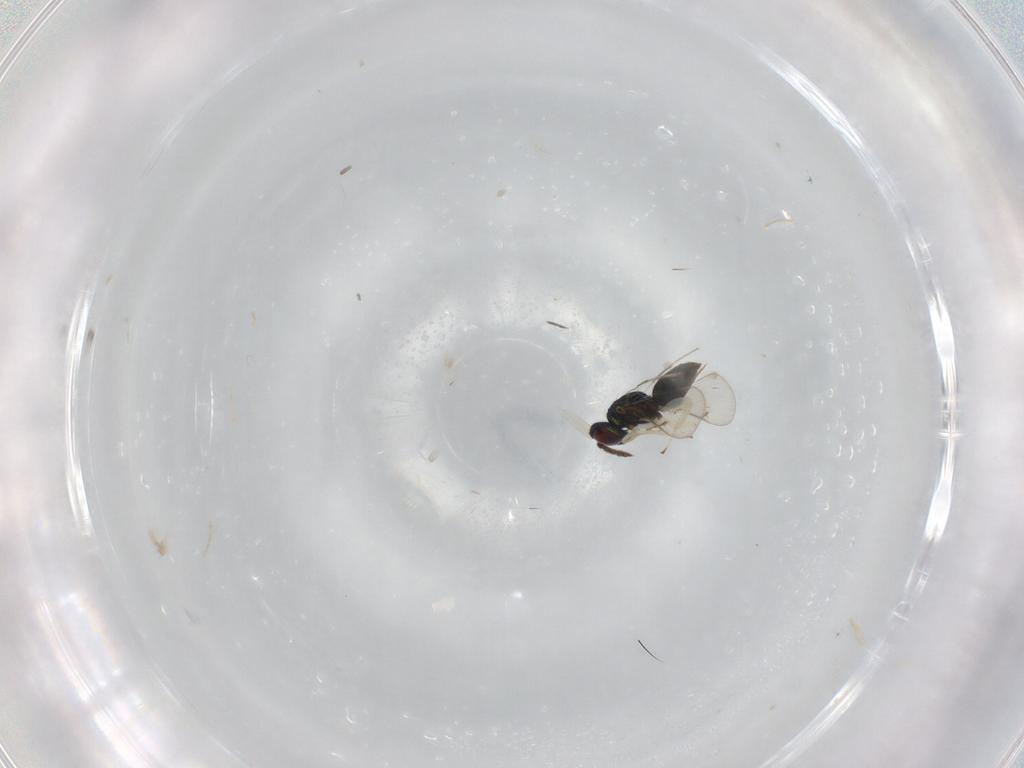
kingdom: Animalia
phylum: Arthropoda
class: Insecta
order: Hymenoptera
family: Eulophidae
